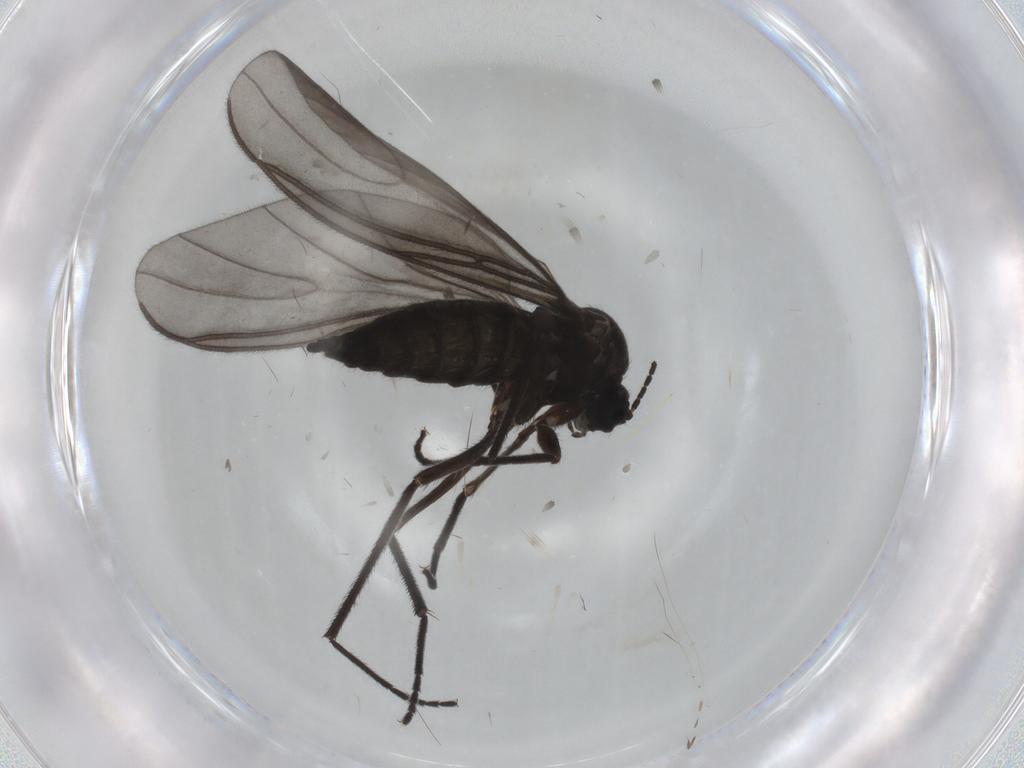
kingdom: Animalia
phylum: Arthropoda
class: Insecta
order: Diptera
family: Sciaridae
